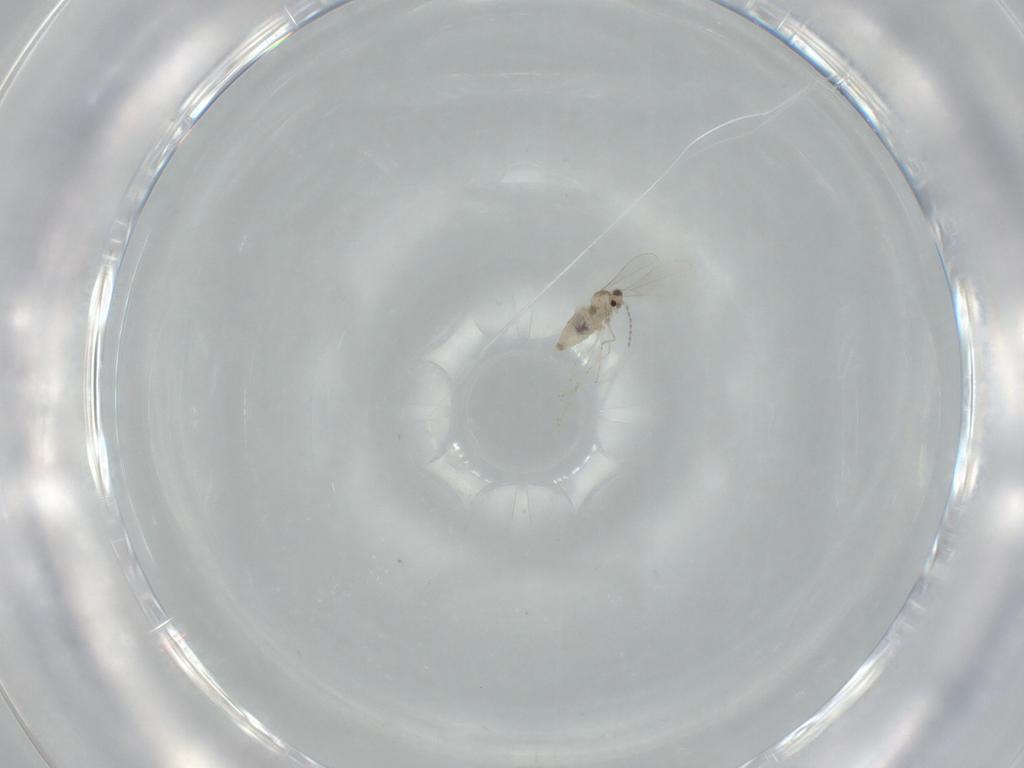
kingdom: Animalia
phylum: Arthropoda
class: Insecta
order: Diptera
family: Cecidomyiidae
